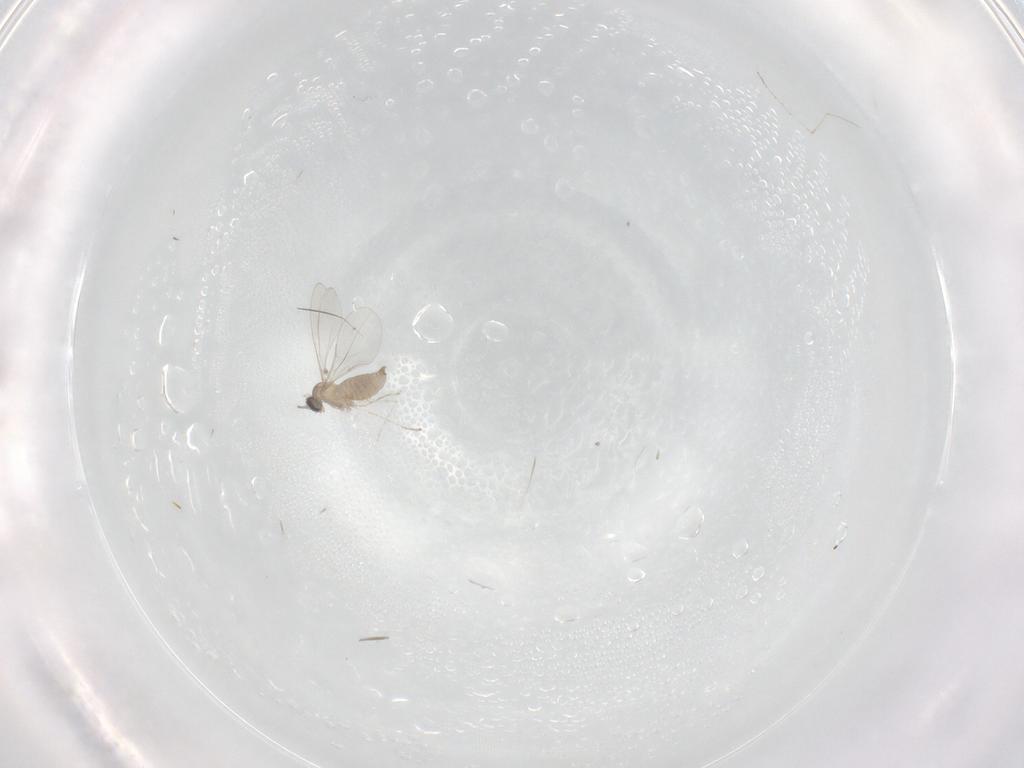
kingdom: Animalia
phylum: Arthropoda
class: Insecta
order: Diptera
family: Cecidomyiidae
